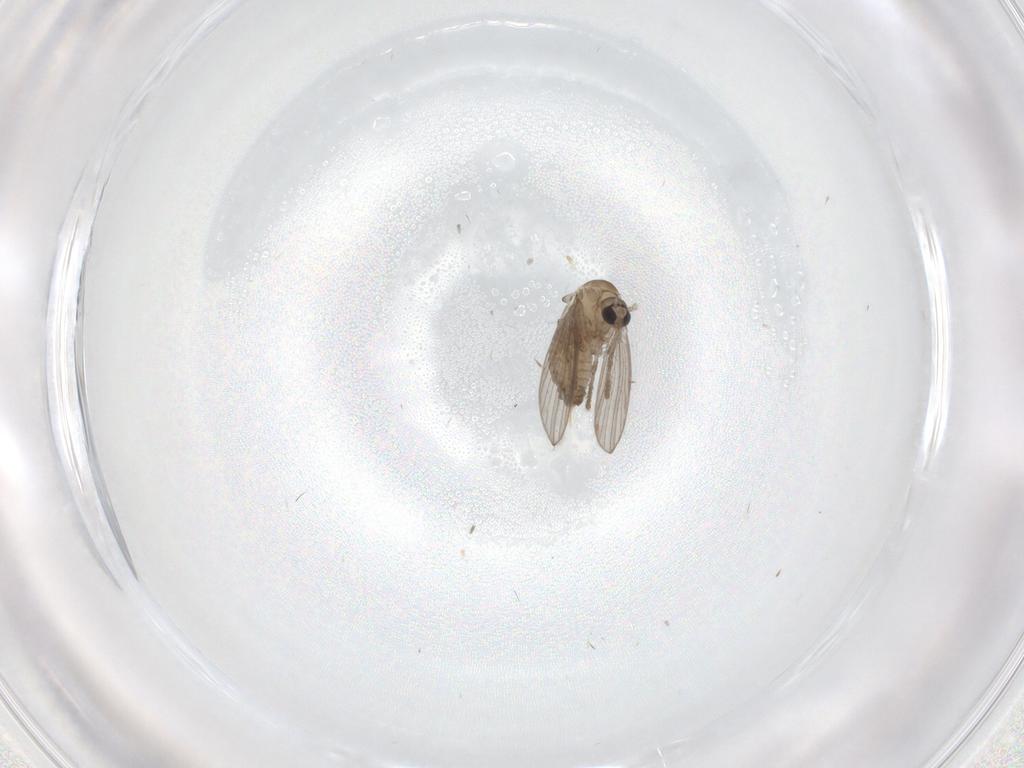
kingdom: Animalia
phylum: Arthropoda
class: Insecta
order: Diptera
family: Psychodidae
